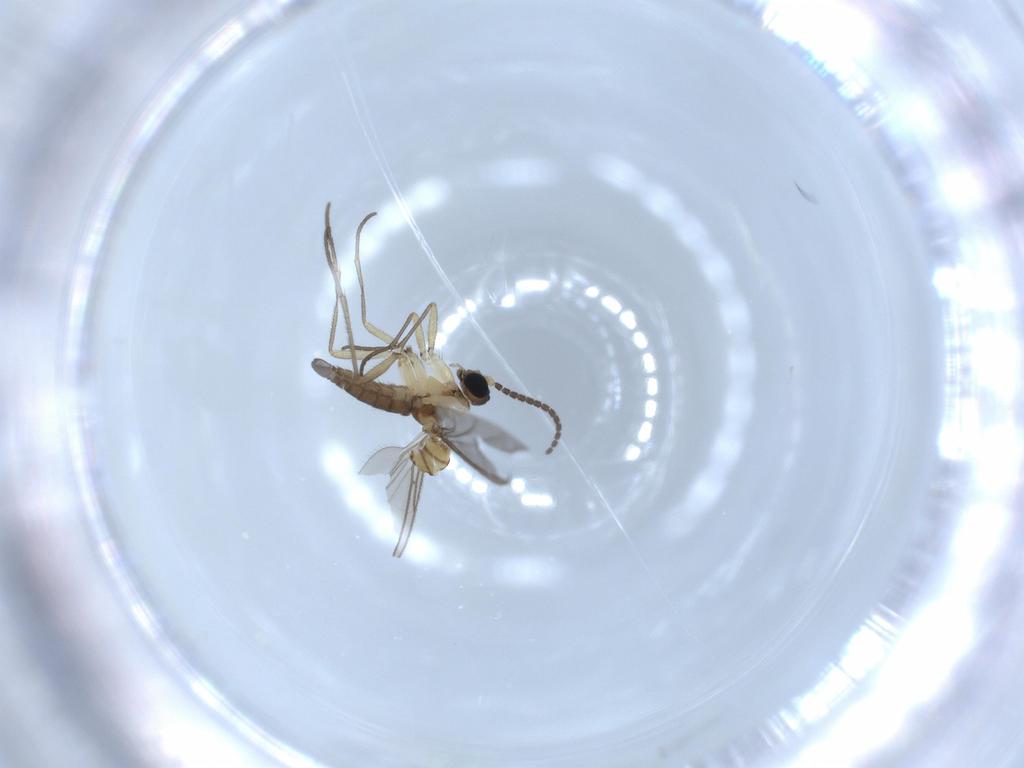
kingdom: Animalia
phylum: Arthropoda
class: Insecta
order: Diptera
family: Sciaridae
